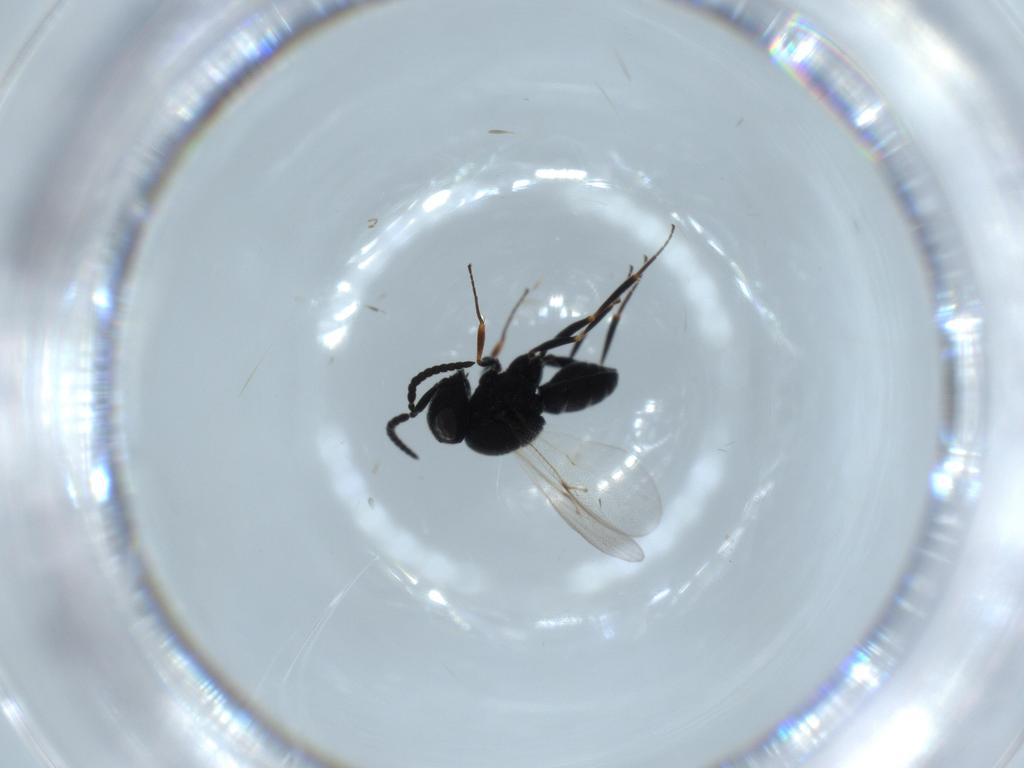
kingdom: Animalia
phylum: Arthropoda
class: Insecta
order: Hymenoptera
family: Scelionidae
